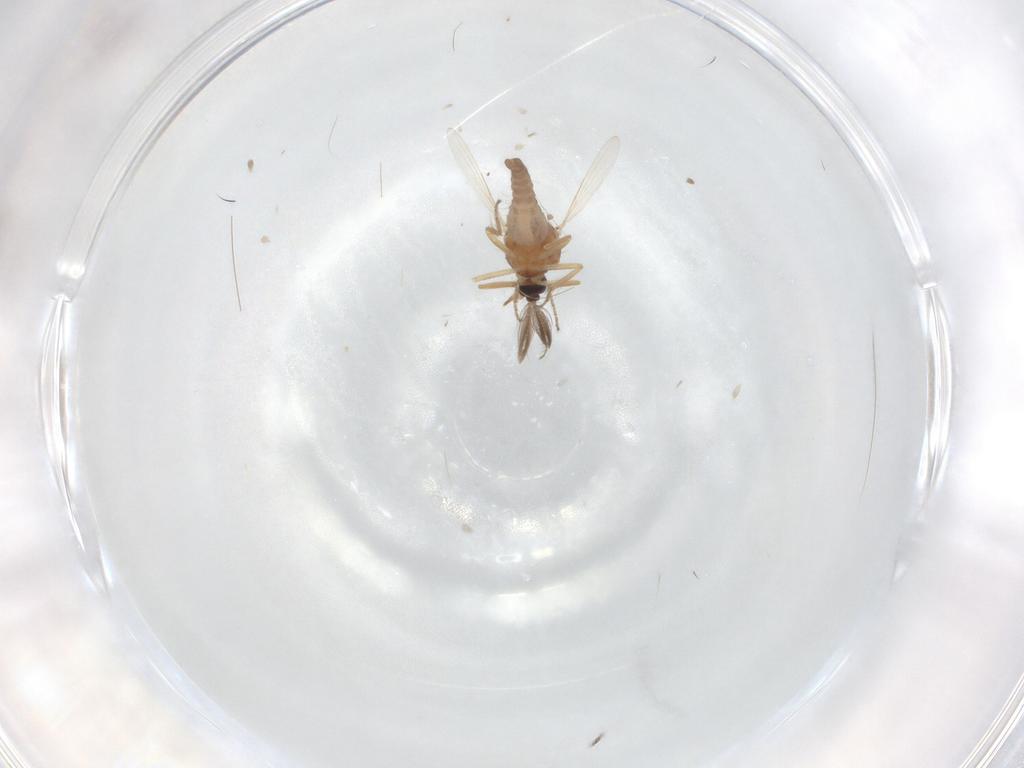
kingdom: Animalia
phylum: Arthropoda
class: Insecta
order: Diptera
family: Ceratopogonidae
